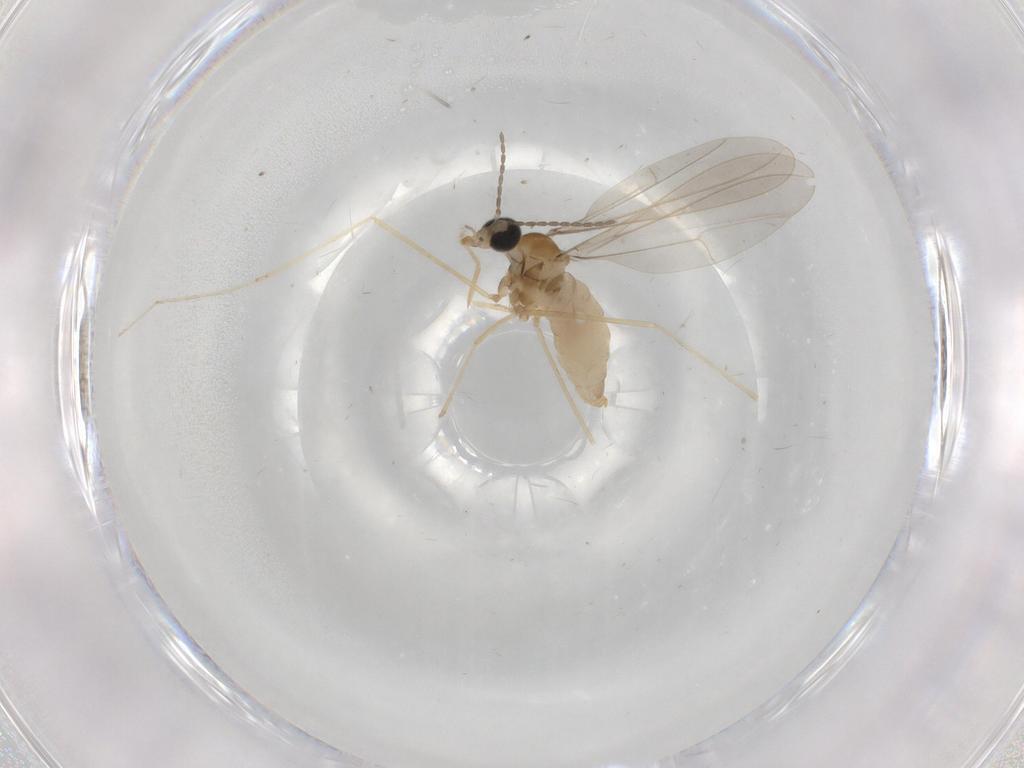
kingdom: Animalia
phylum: Arthropoda
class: Insecta
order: Diptera
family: Cecidomyiidae
